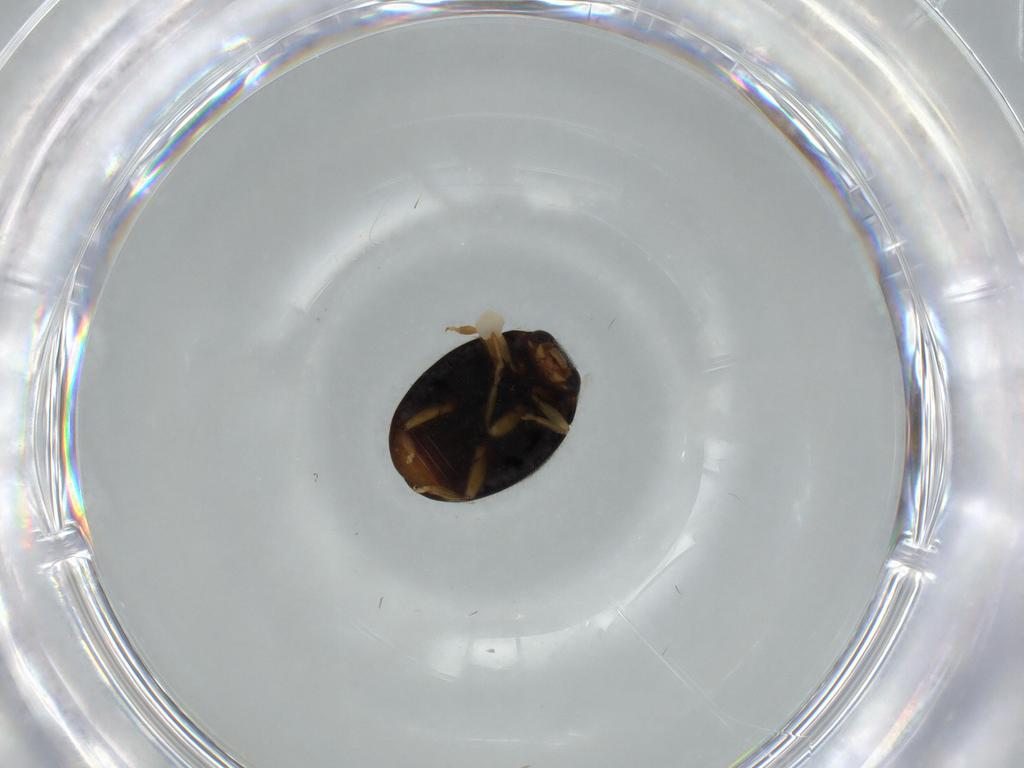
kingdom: Animalia
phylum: Arthropoda
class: Insecta
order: Coleoptera
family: Coccinellidae
